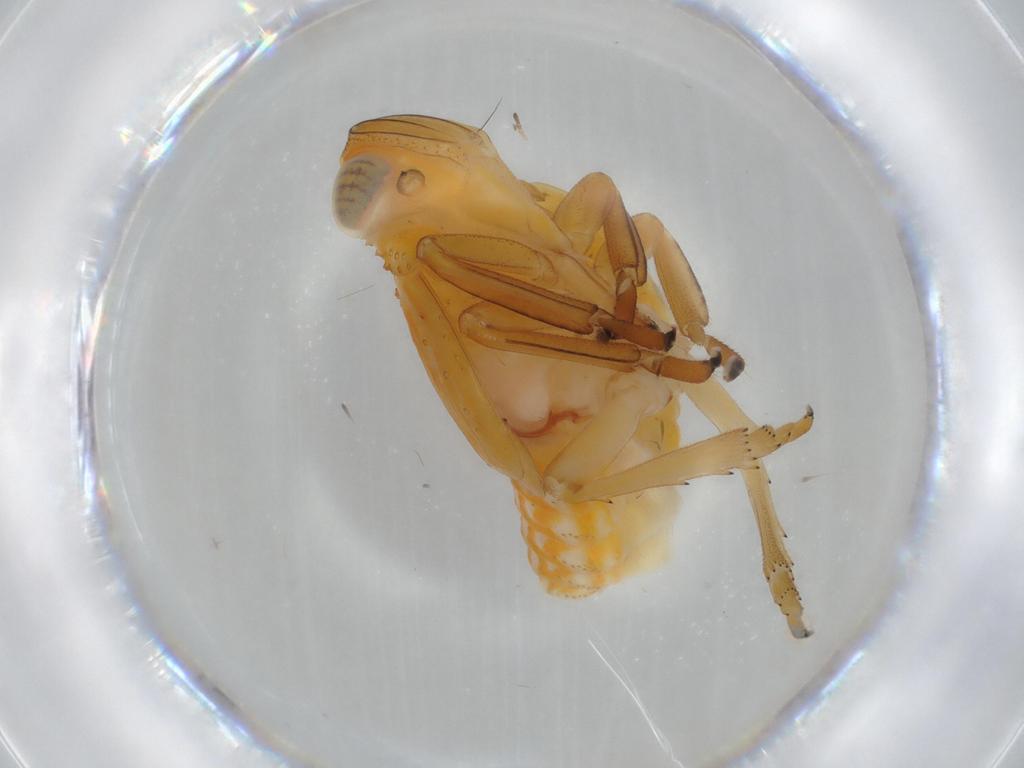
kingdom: Animalia
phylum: Arthropoda
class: Insecta
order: Hemiptera
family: Issidae
